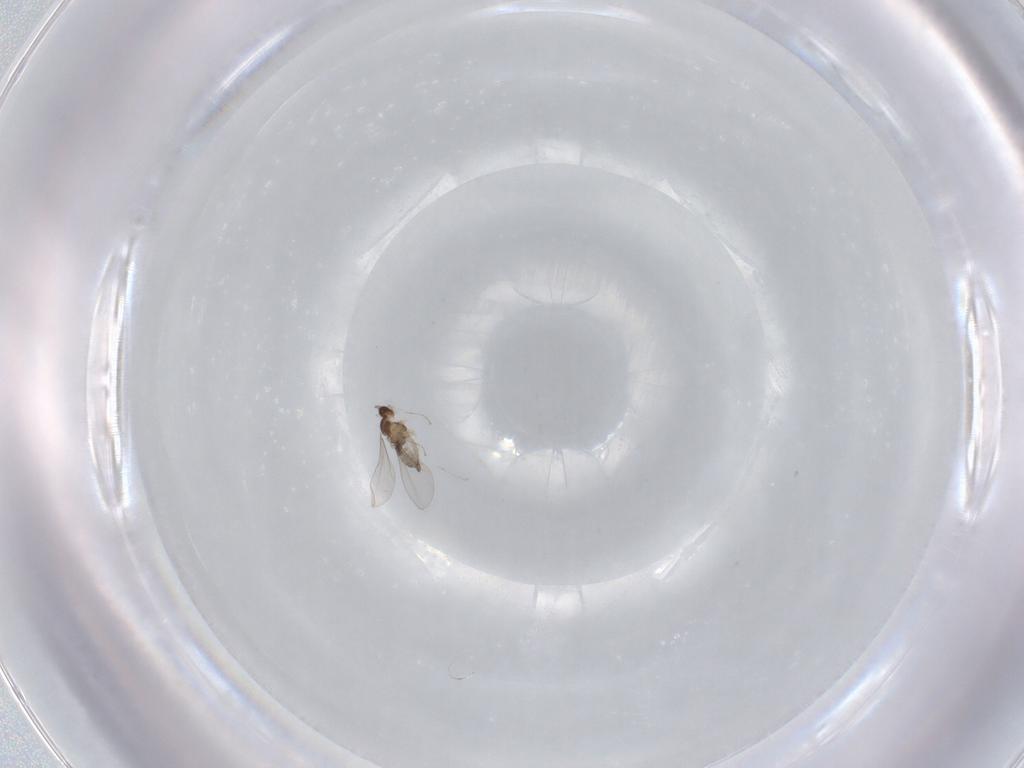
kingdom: Animalia
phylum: Arthropoda
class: Insecta
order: Diptera
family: Cecidomyiidae
